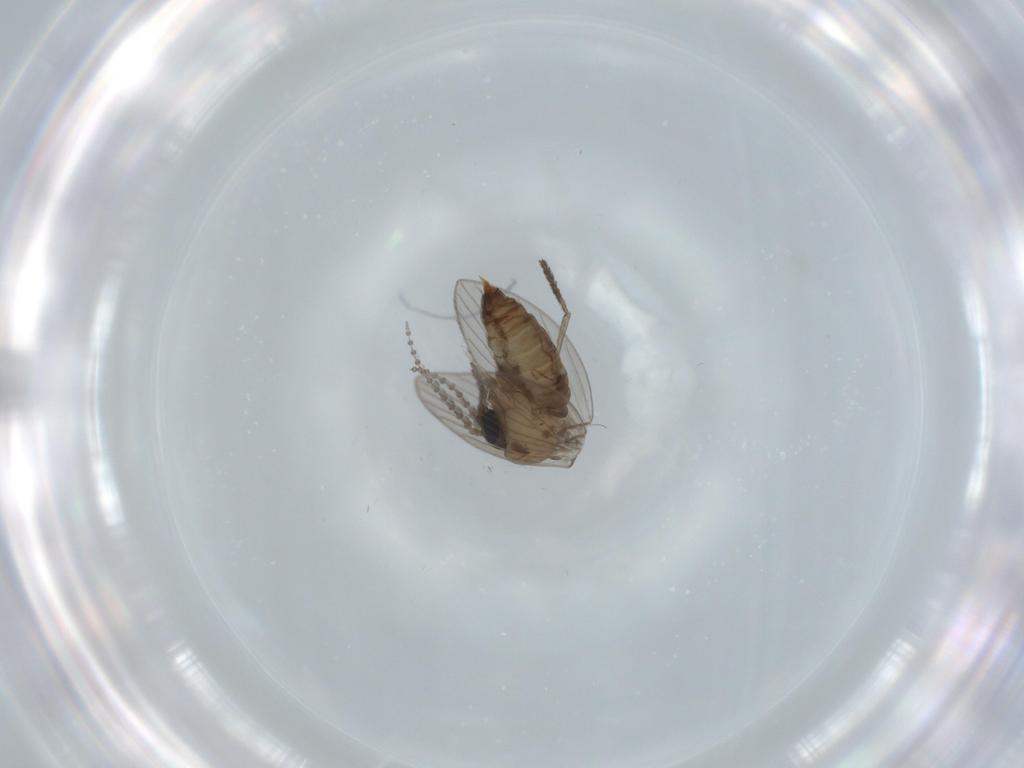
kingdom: Animalia
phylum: Arthropoda
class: Insecta
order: Diptera
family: Psychodidae
